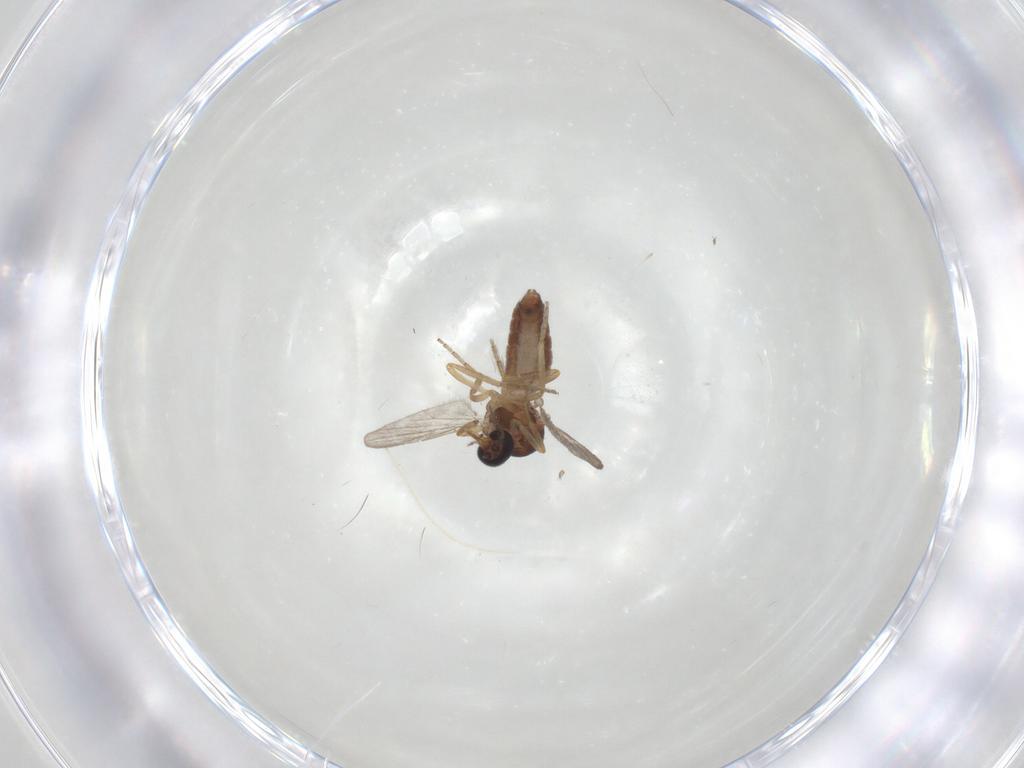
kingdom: Animalia
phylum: Arthropoda
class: Insecta
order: Diptera
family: Ceratopogonidae
